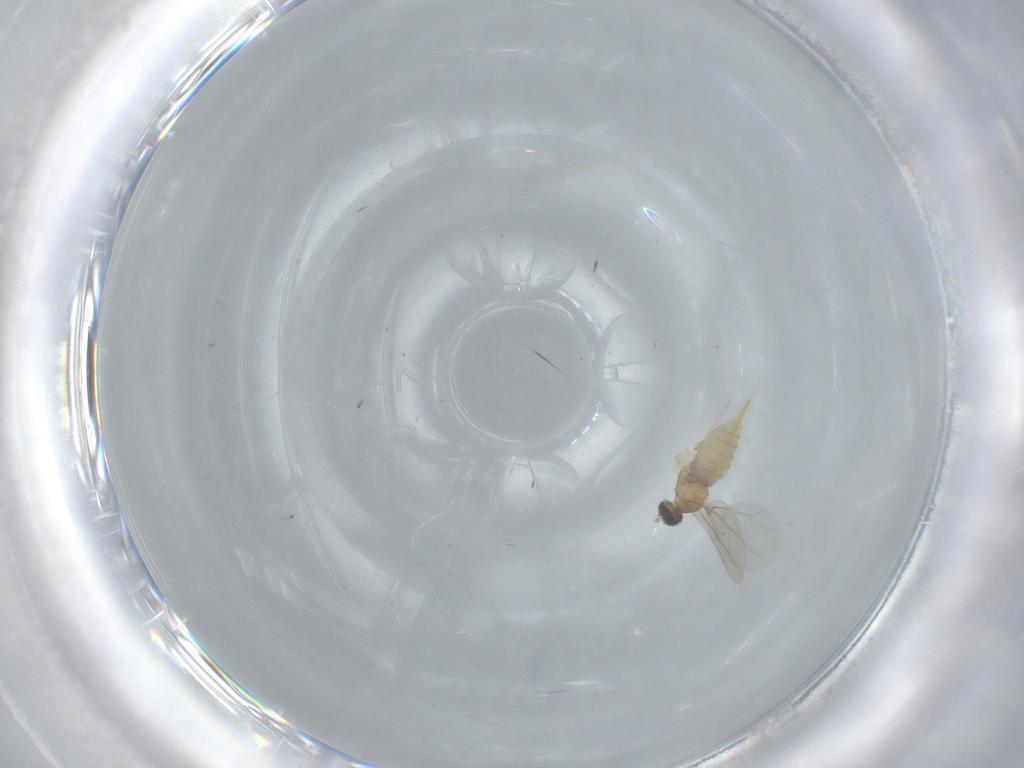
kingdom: Animalia
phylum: Arthropoda
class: Insecta
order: Diptera
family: Cecidomyiidae
